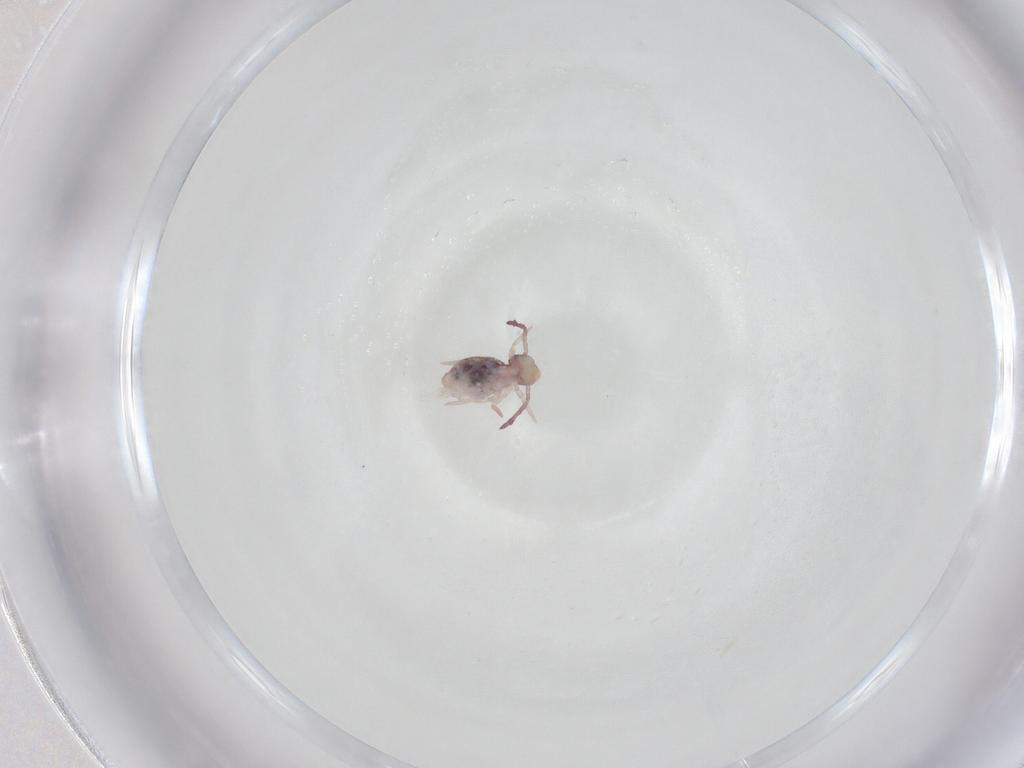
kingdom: Animalia
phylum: Arthropoda
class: Collembola
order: Symphypleona
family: Dicyrtomidae
